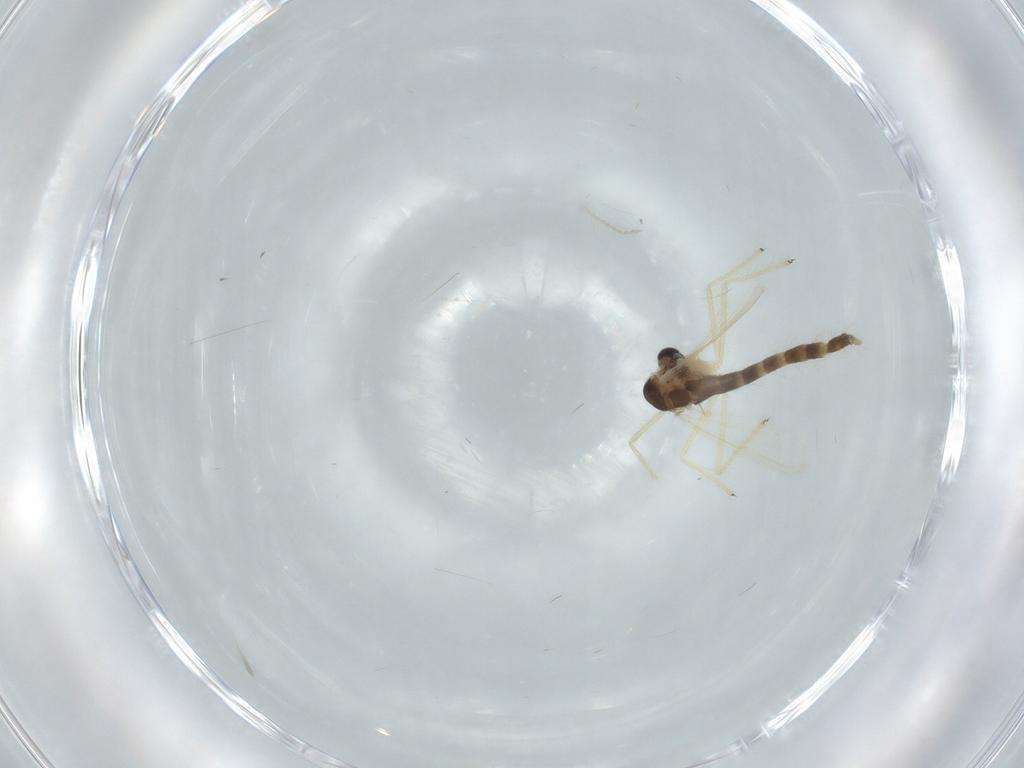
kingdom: Animalia
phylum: Arthropoda
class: Insecta
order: Diptera
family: Chironomidae
